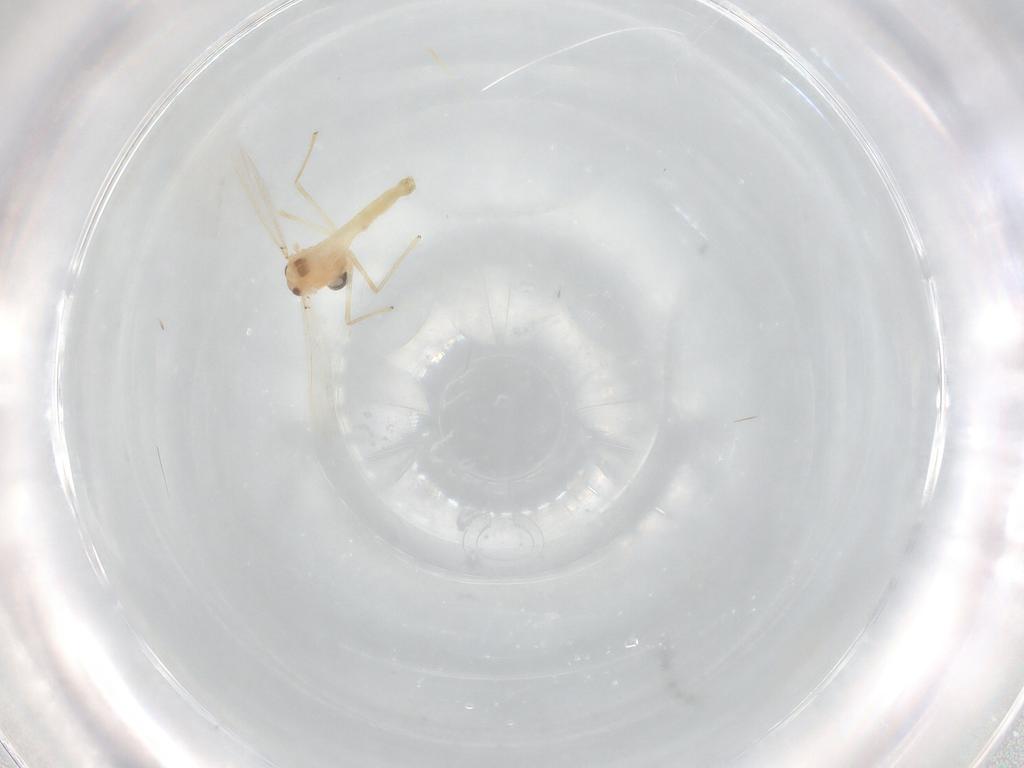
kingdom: Animalia
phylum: Arthropoda
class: Insecta
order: Diptera
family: Chironomidae
